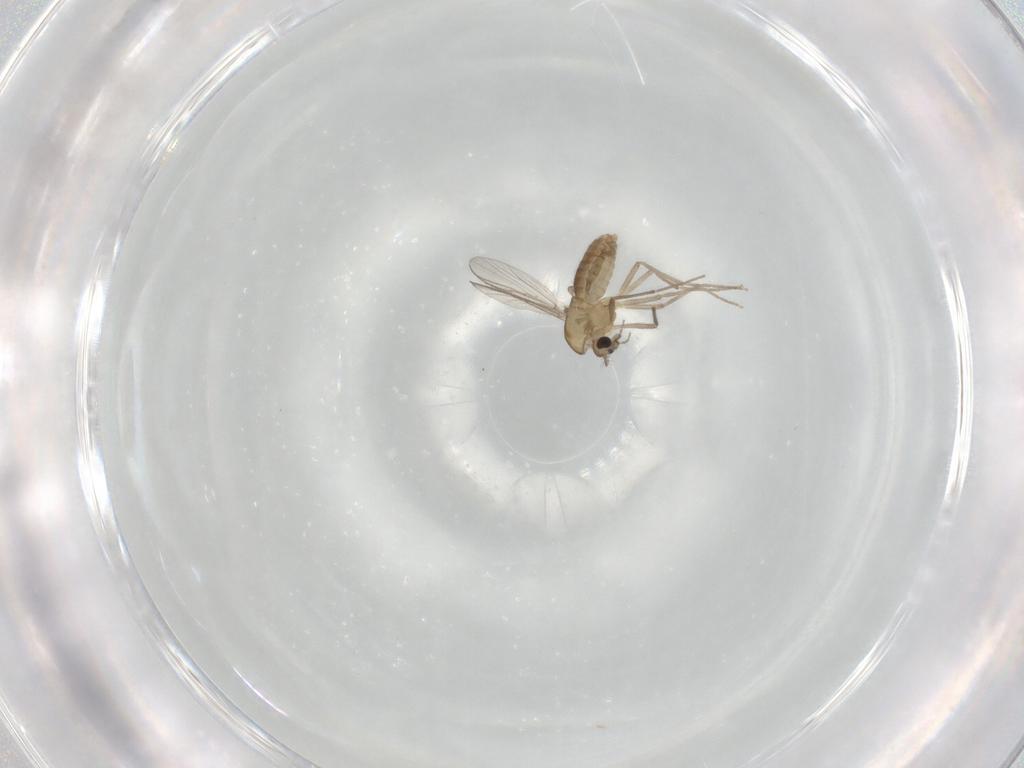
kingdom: Animalia
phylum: Arthropoda
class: Insecta
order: Diptera
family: Chironomidae
